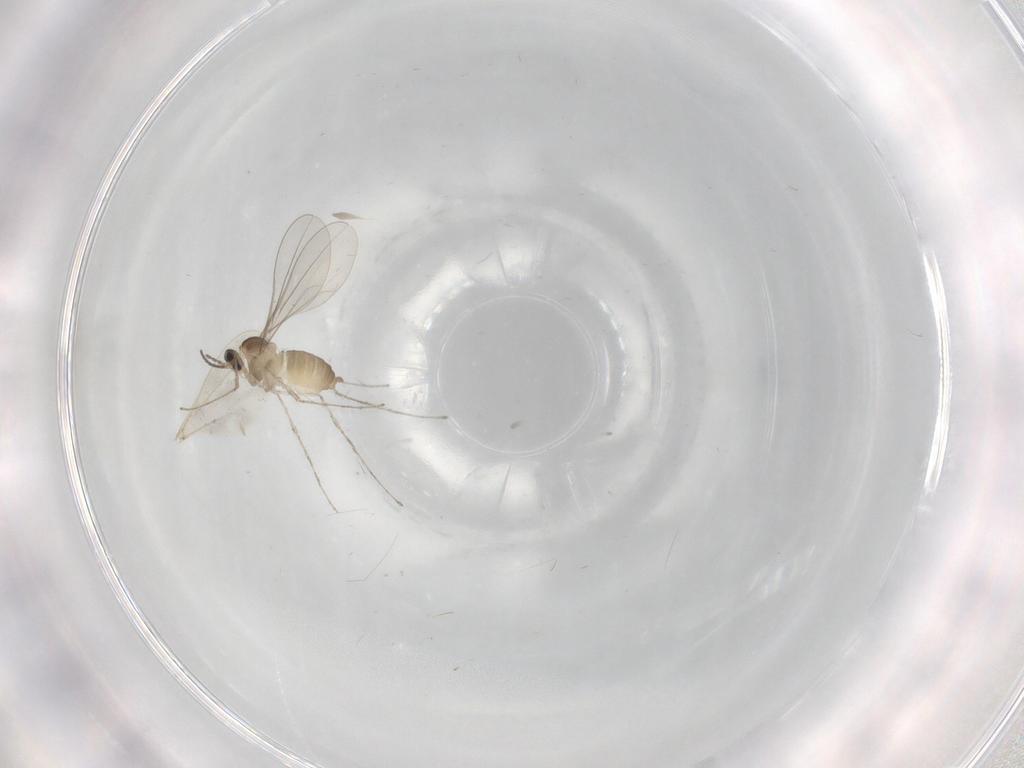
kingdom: Animalia
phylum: Arthropoda
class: Insecta
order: Diptera
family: Cecidomyiidae
